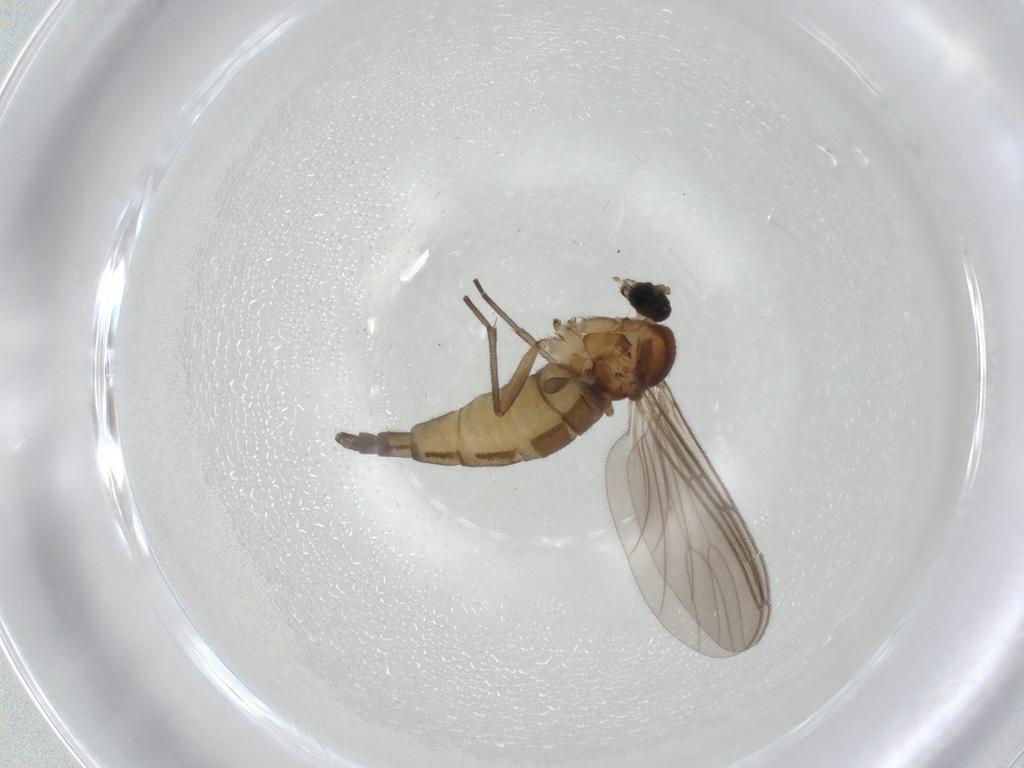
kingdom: Animalia
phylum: Arthropoda
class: Insecta
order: Diptera
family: Sciaridae
